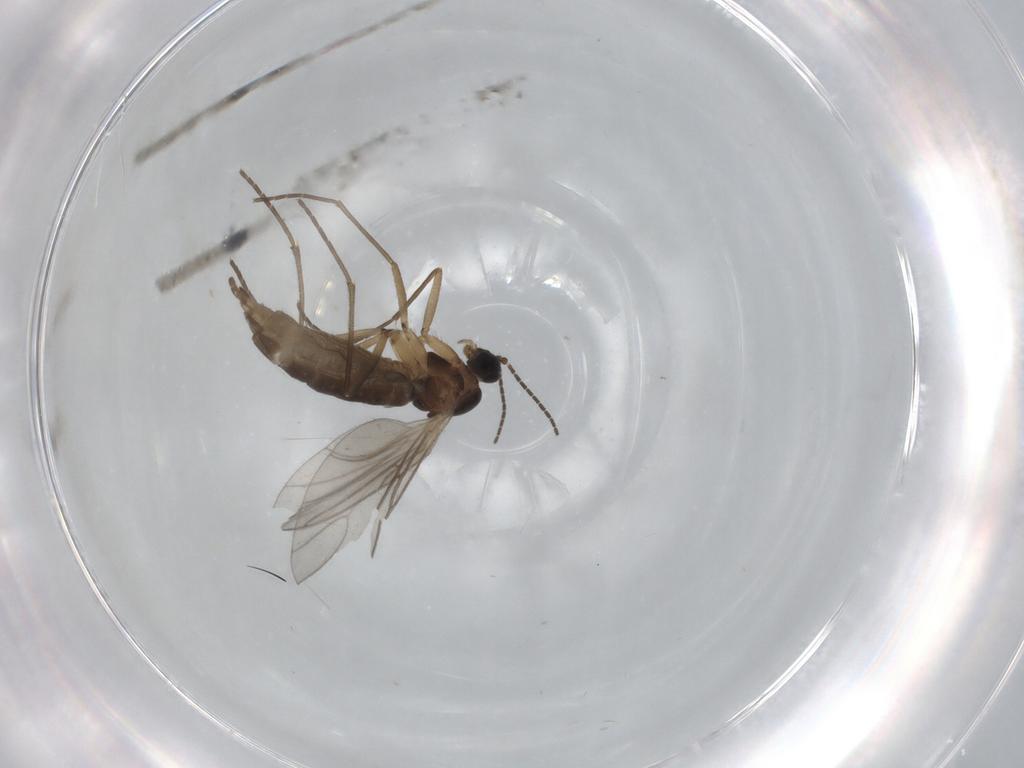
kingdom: Animalia
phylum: Arthropoda
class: Insecta
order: Diptera
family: Sciaridae
